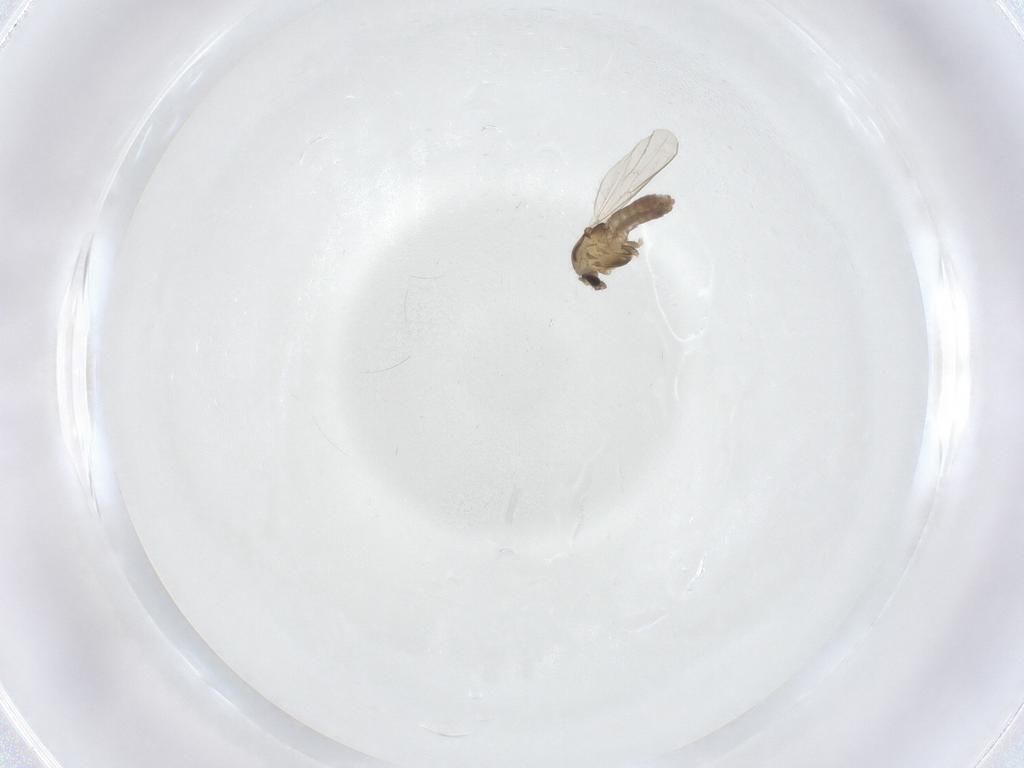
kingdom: Animalia
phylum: Arthropoda
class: Insecta
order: Diptera
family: Chironomidae
